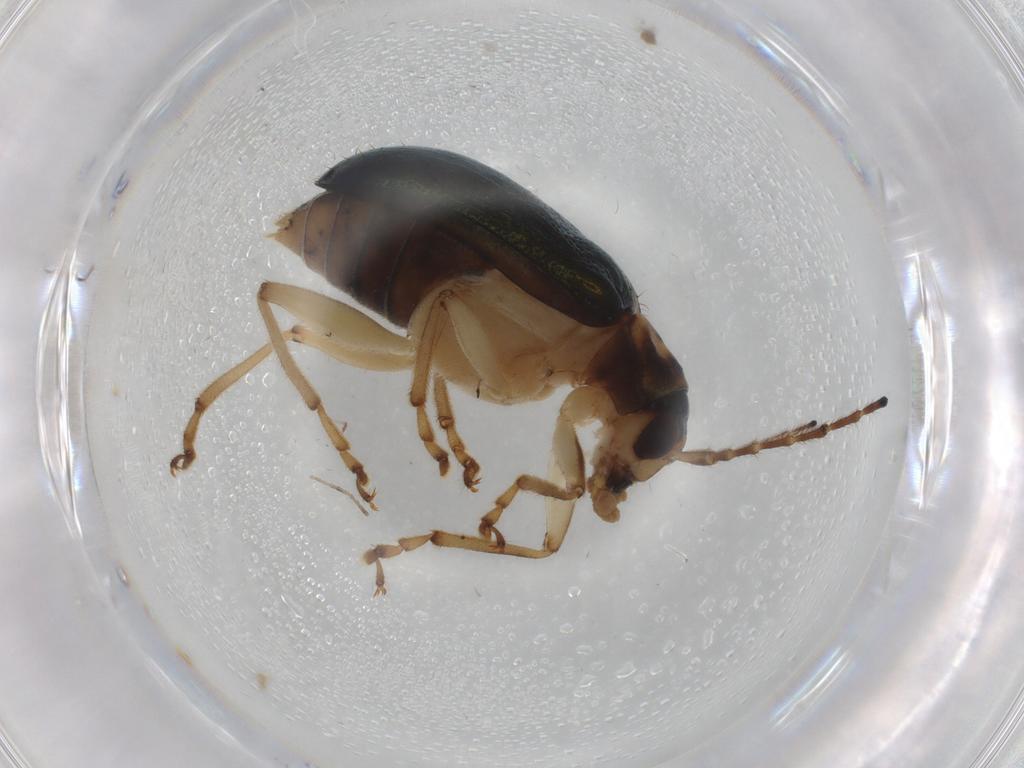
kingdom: Animalia
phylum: Arthropoda
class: Insecta
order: Coleoptera
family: Chrysomelidae
